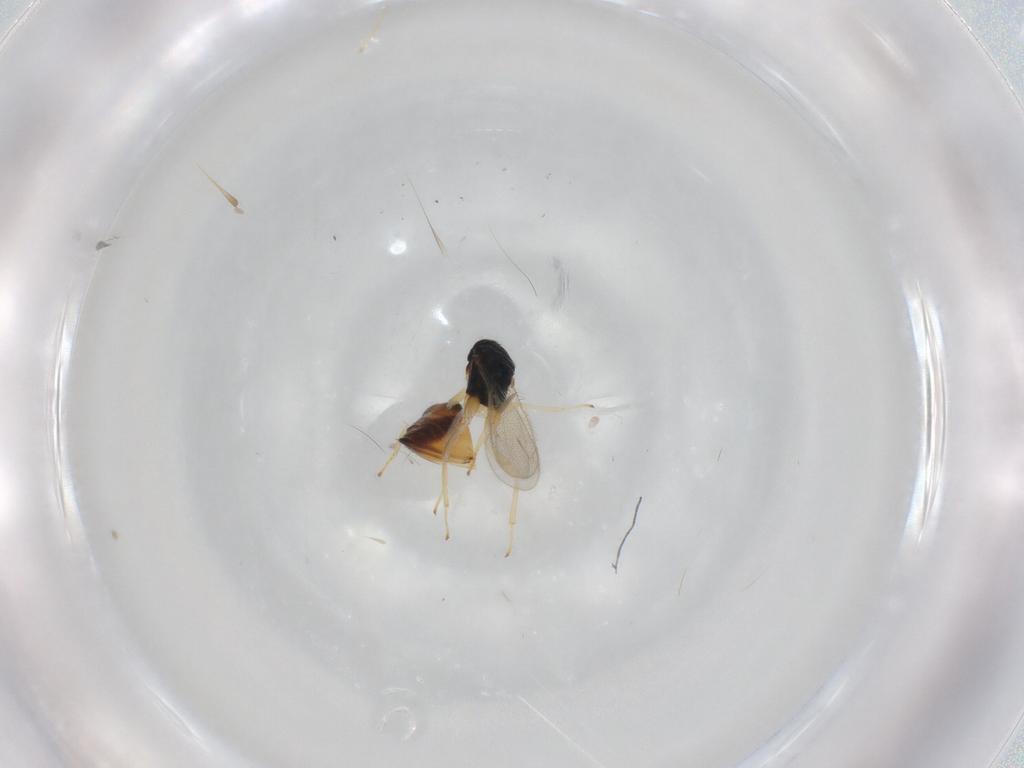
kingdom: Animalia
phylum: Arthropoda
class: Insecta
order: Hymenoptera
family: Eulophidae
